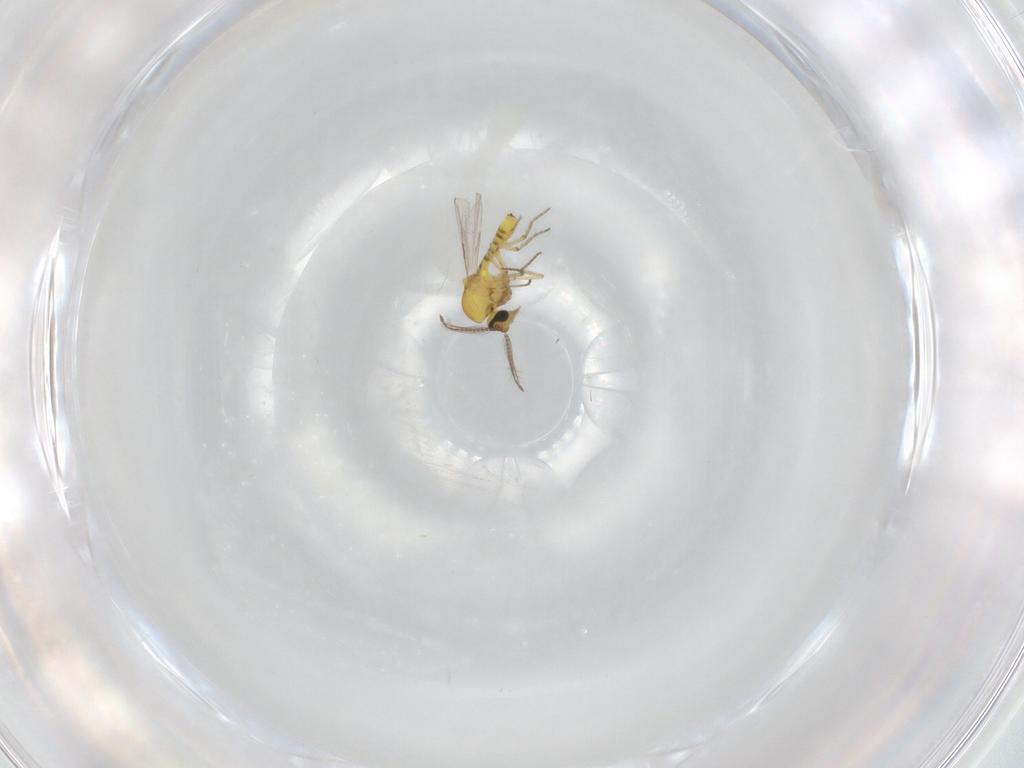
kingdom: Animalia
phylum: Arthropoda
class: Insecta
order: Diptera
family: Ceratopogonidae
